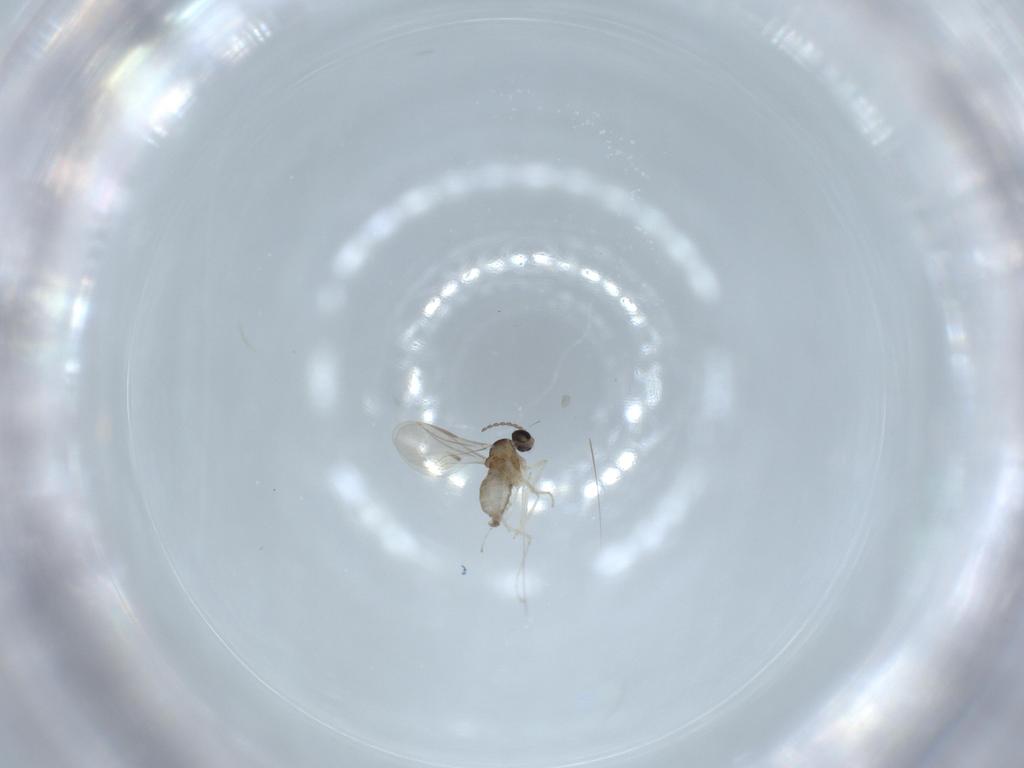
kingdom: Animalia
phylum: Arthropoda
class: Insecta
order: Diptera
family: Cecidomyiidae
